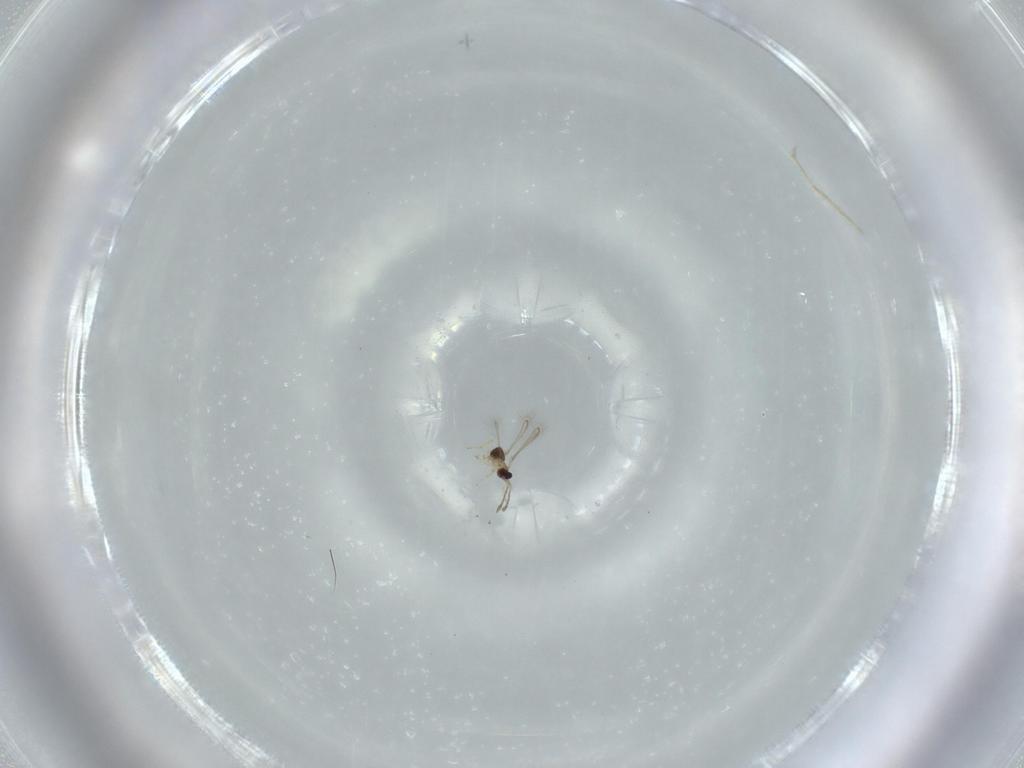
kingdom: Animalia
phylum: Arthropoda
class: Insecta
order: Hymenoptera
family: Mymaridae
